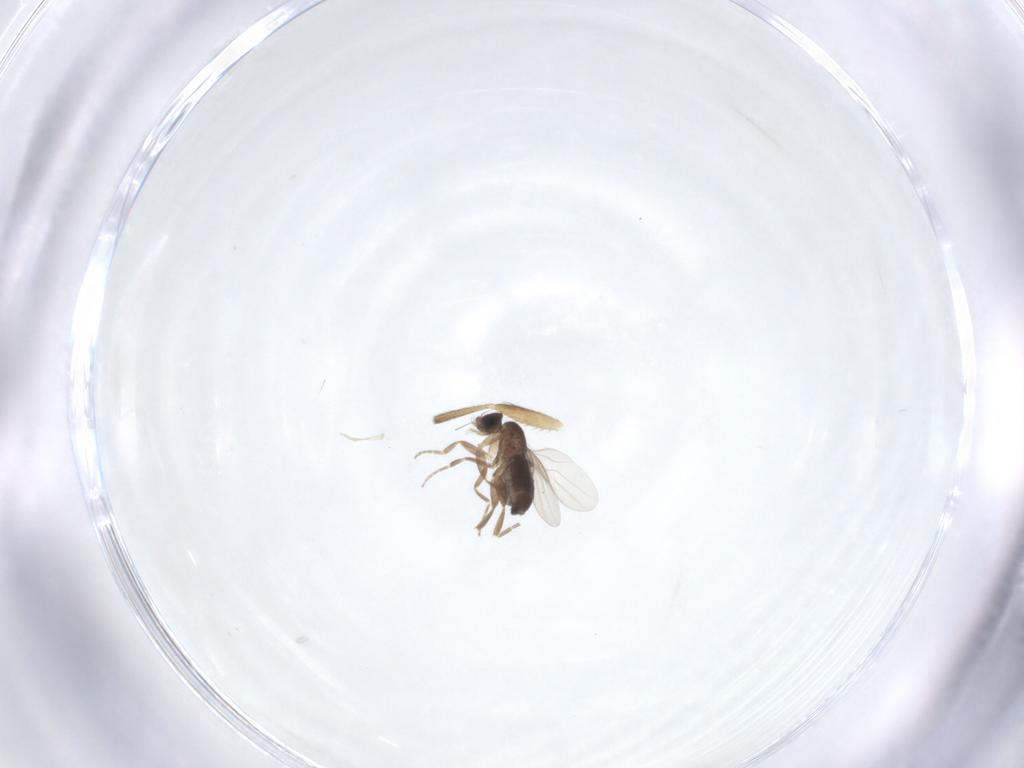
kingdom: Animalia
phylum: Arthropoda
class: Insecta
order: Diptera
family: Phoridae
